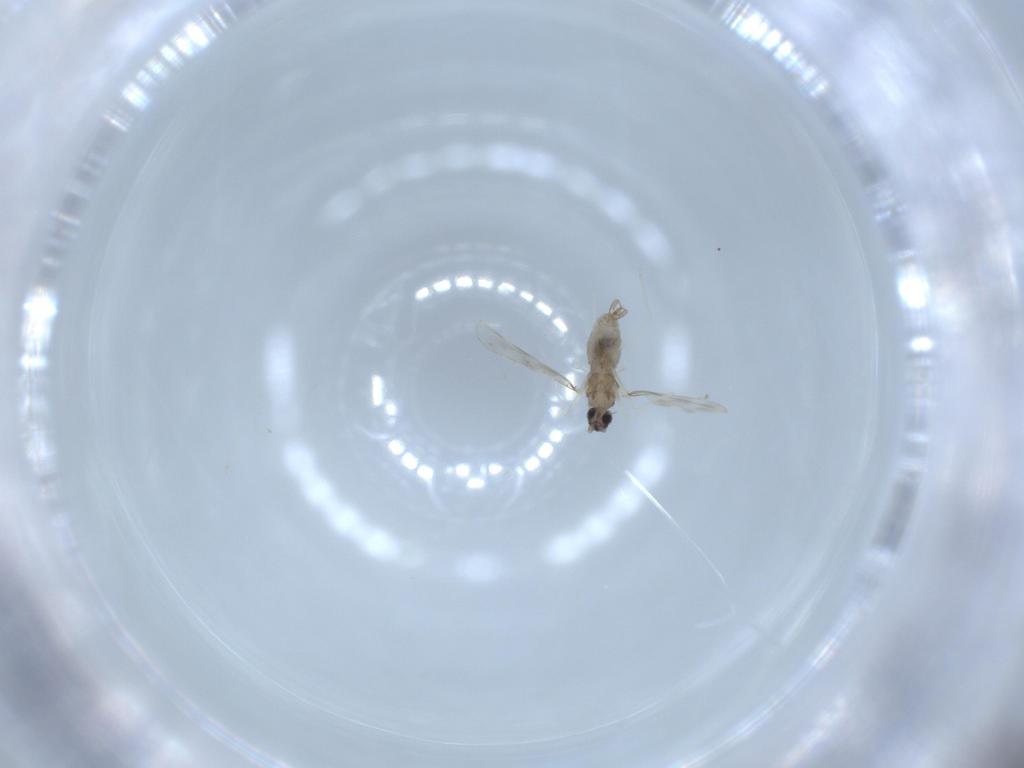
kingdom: Animalia
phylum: Arthropoda
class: Insecta
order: Diptera
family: Cecidomyiidae
